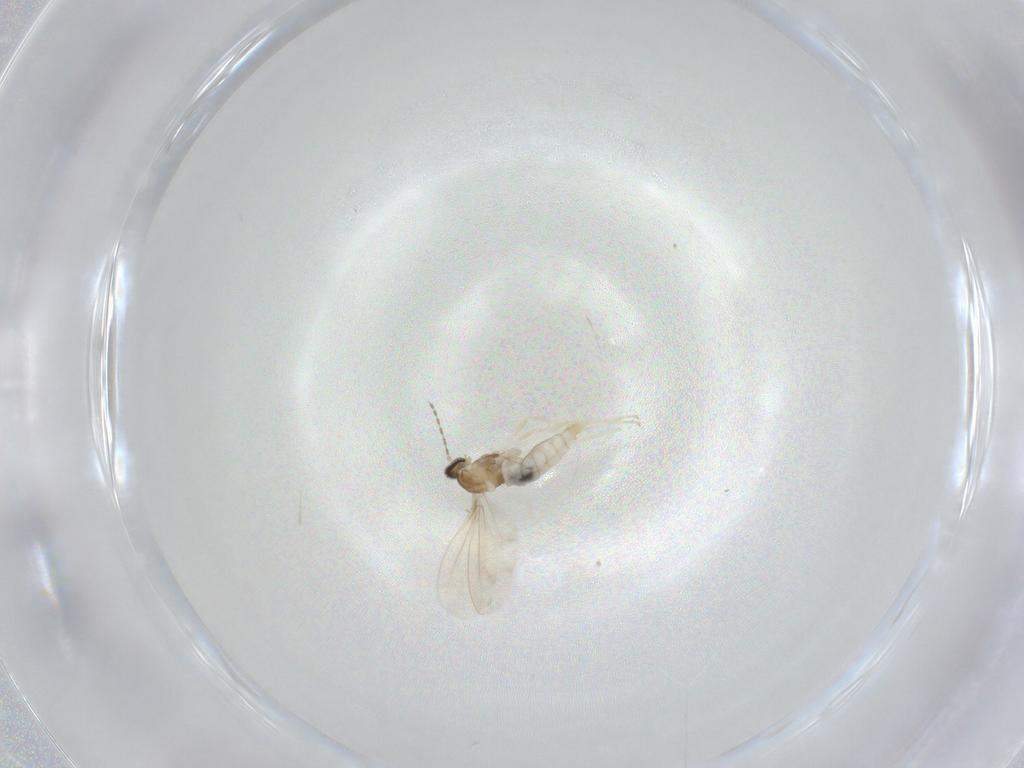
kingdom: Animalia
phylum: Arthropoda
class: Insecta
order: Diptera
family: Cecidomyiidae
